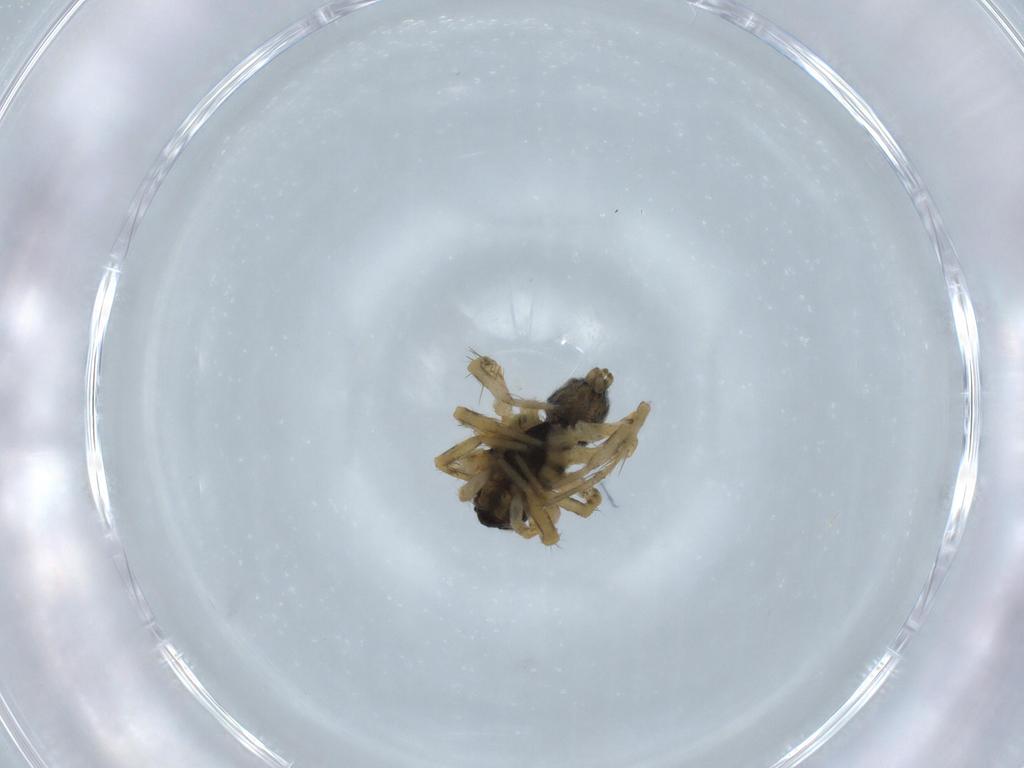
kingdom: Animalia
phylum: Arthropoda
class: Arachnida
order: Araneae
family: Lycosidae
